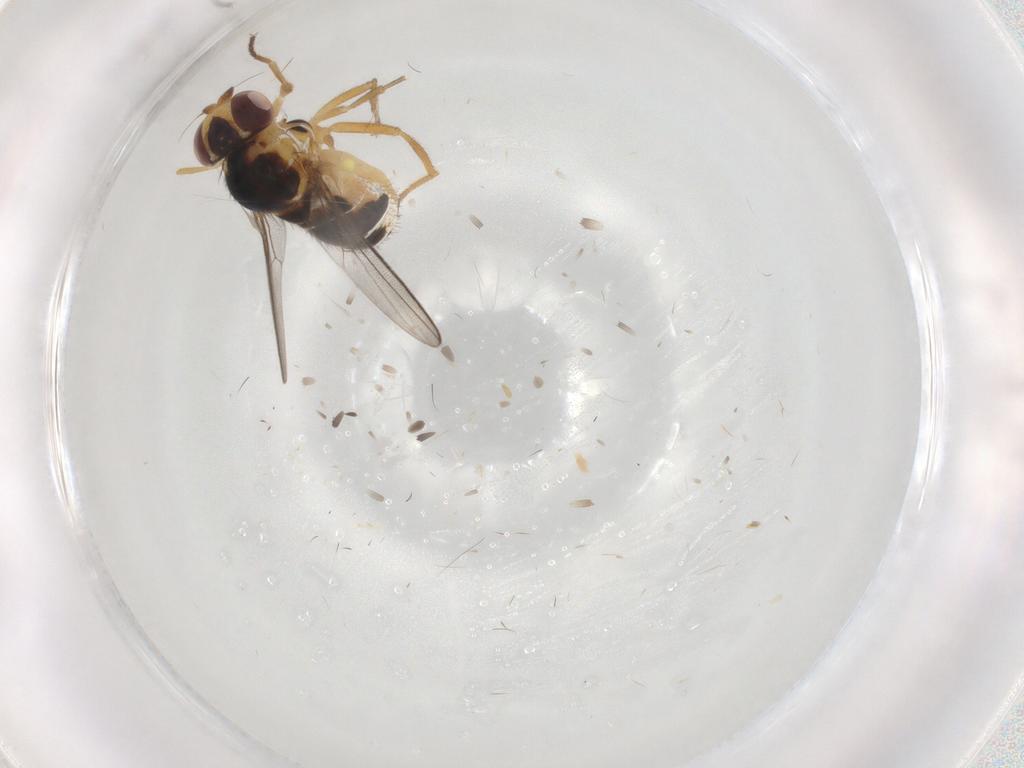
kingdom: Animalia
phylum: Arthropoda
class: Insecta
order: Diptera
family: Chloropidae
